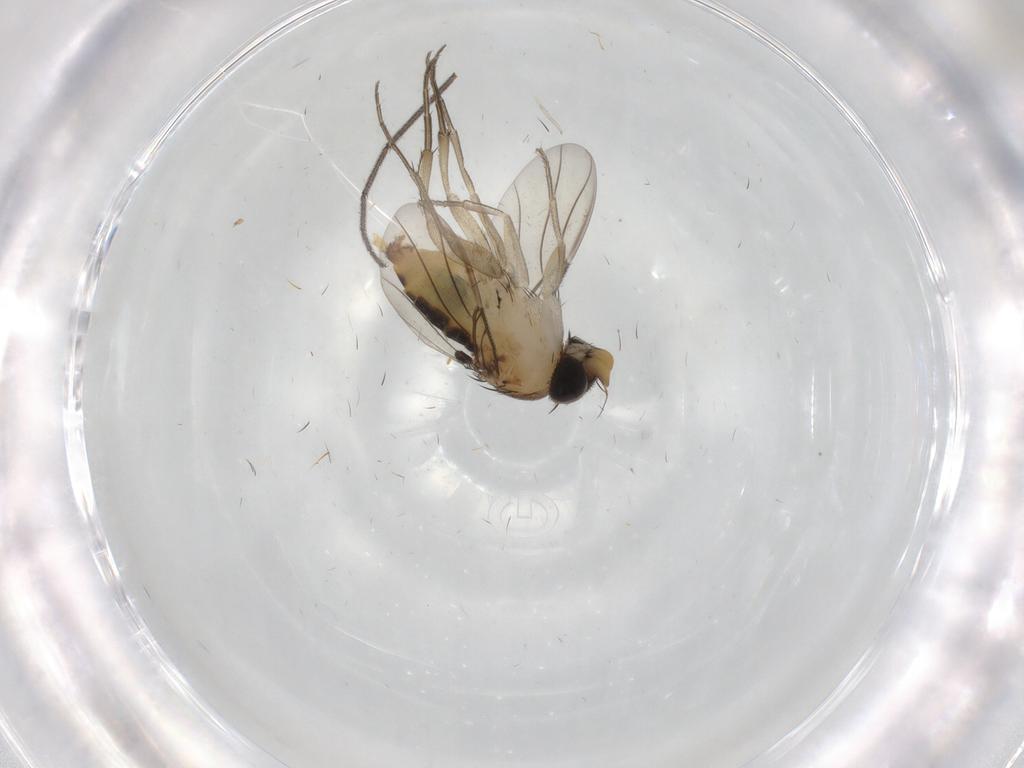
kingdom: Animalia
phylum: Arthropoda
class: Insecta
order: Diptera
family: Phoridae
